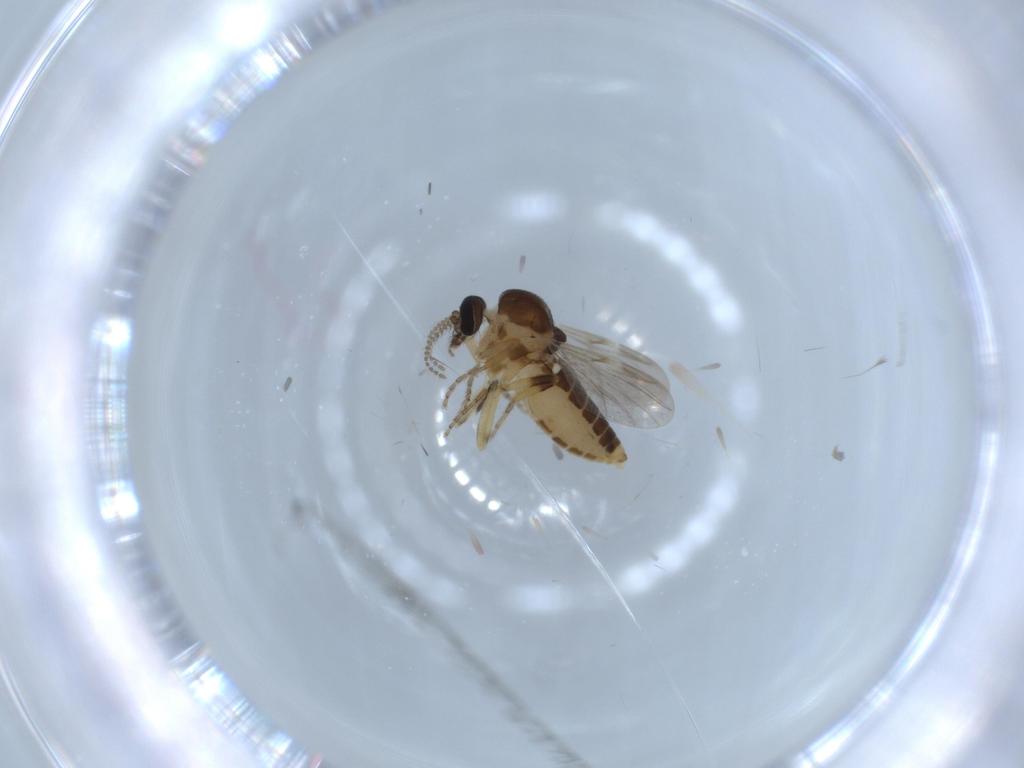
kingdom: Animalia
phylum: Arthropoda
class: Insecta
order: Diptera
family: Ceratopogonidae
